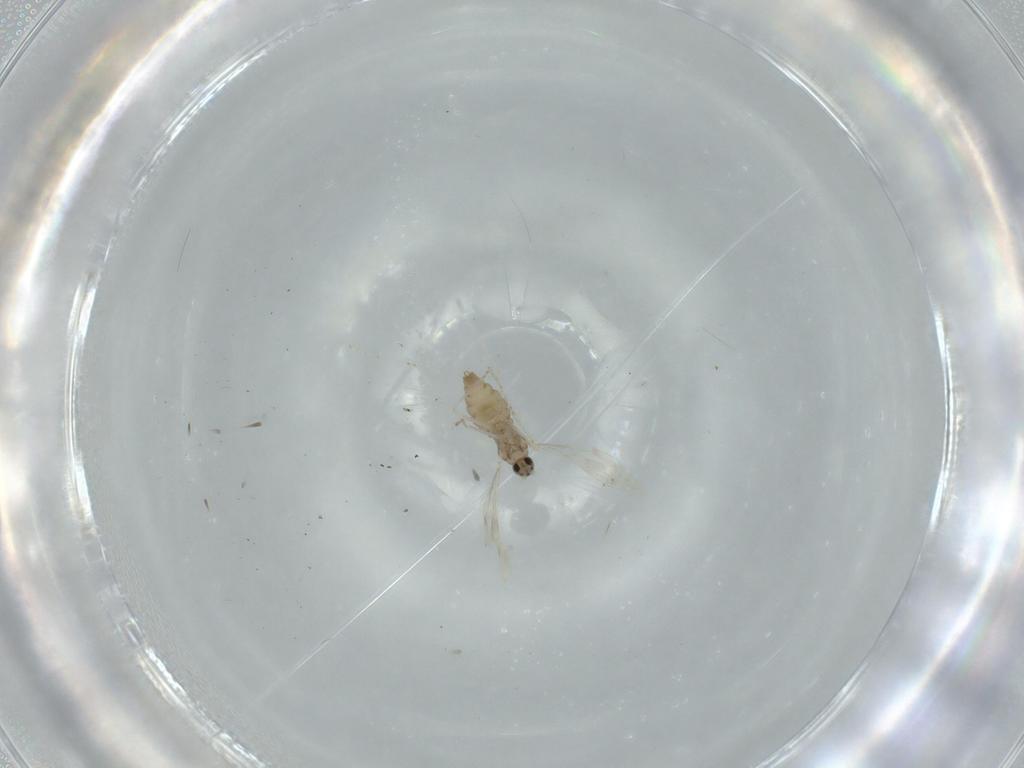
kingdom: Animalia
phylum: Arthropoda
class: Insecta
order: Diptera
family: Cecidomyiidae
